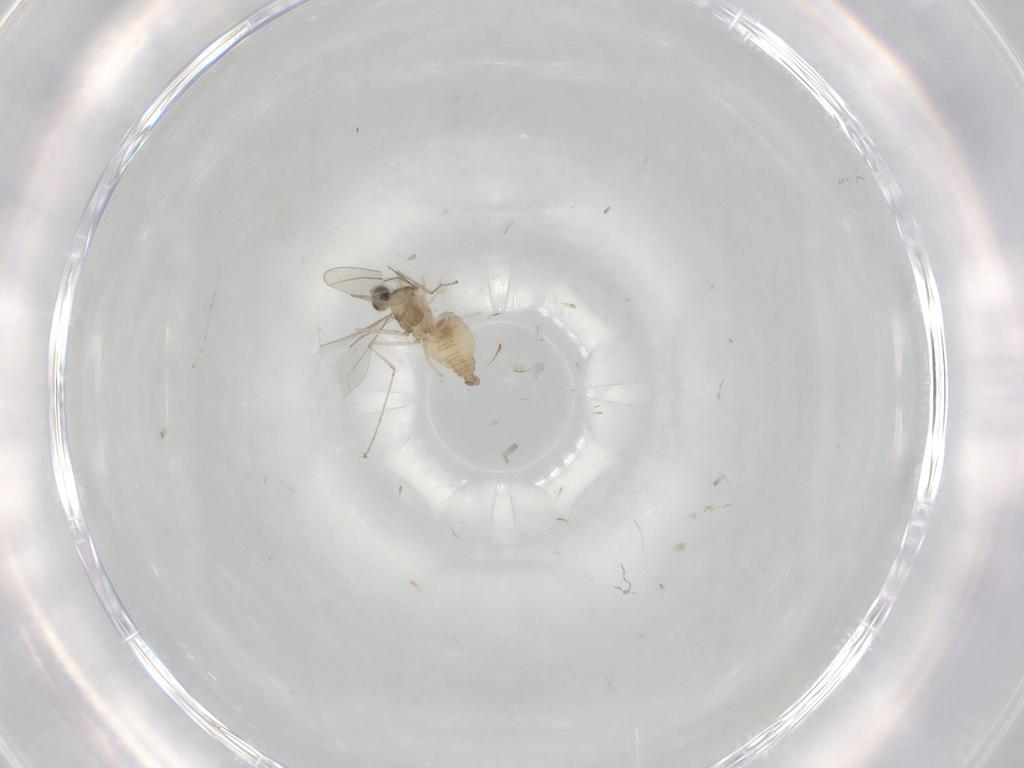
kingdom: Animalia
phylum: Arthropoda
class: Insecta
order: Diptera
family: Cecidomyiidae
